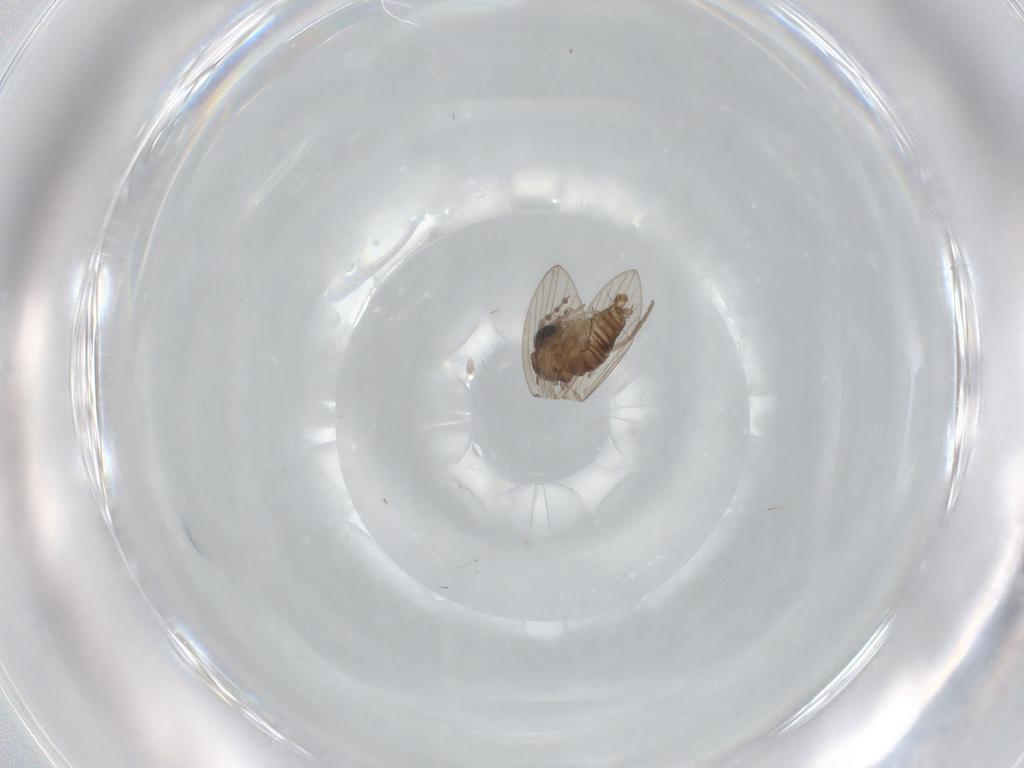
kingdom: Animalia
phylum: Arthropoda
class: Insecta
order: Diptera
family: Psychodidae
